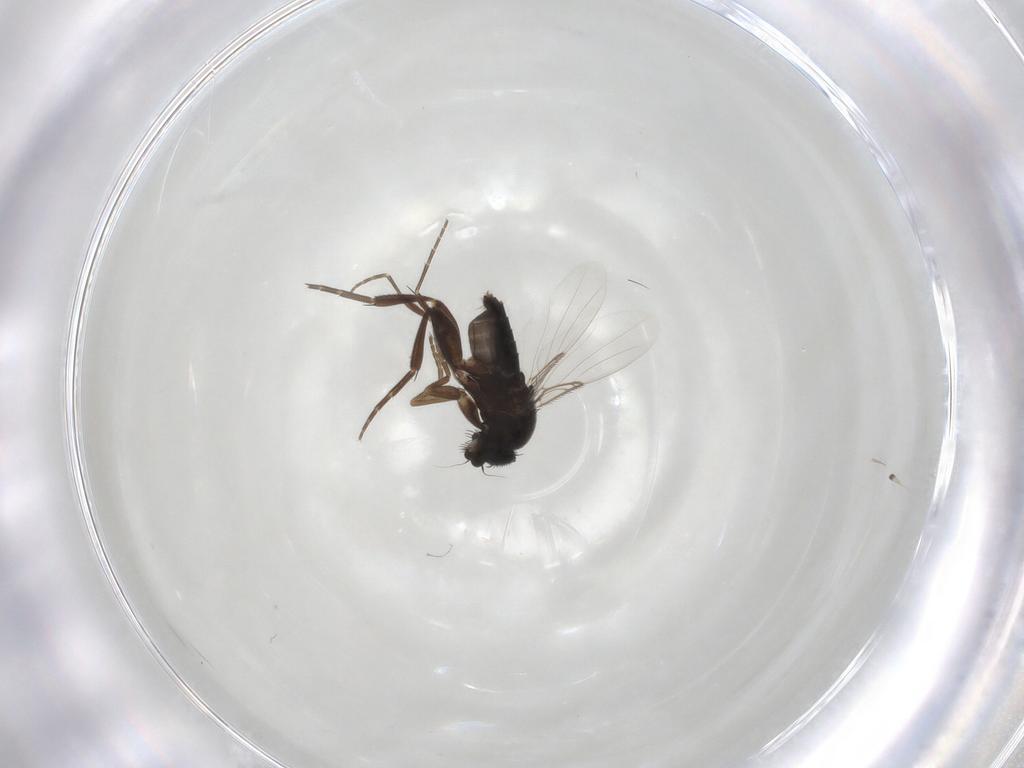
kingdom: Animalia
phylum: Arthropoda
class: Insecta
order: Diptera
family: Phoridae
